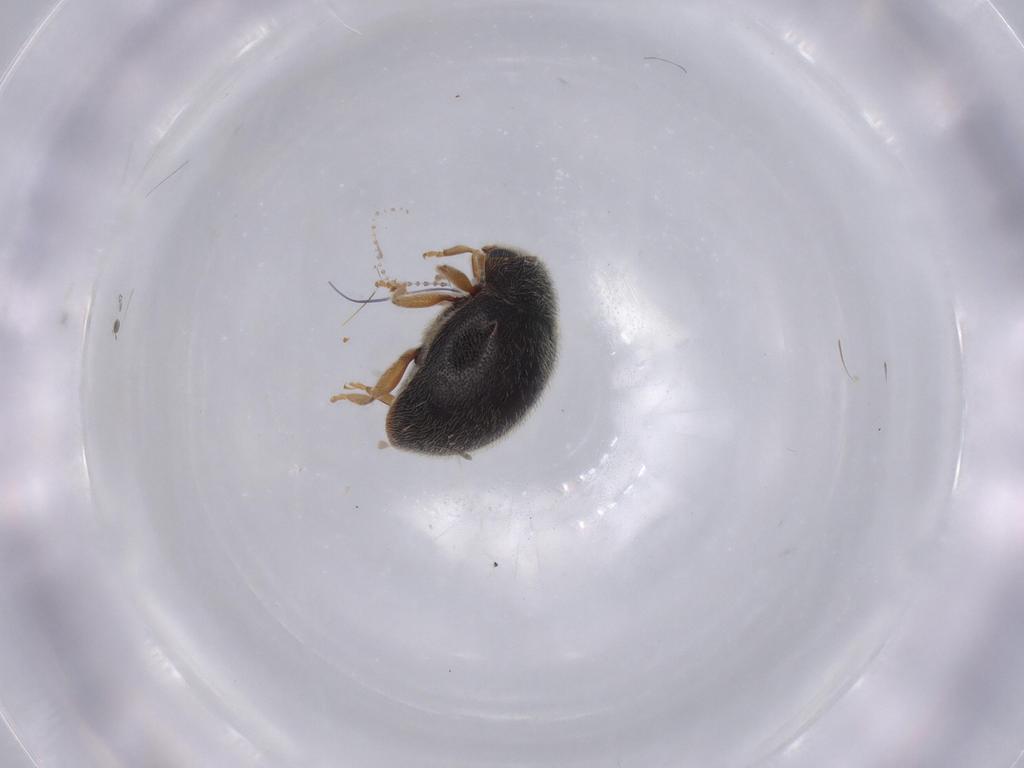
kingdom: Animalia
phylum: Arthropoda
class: Insecta
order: Coleoptera
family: Coccinellidae
